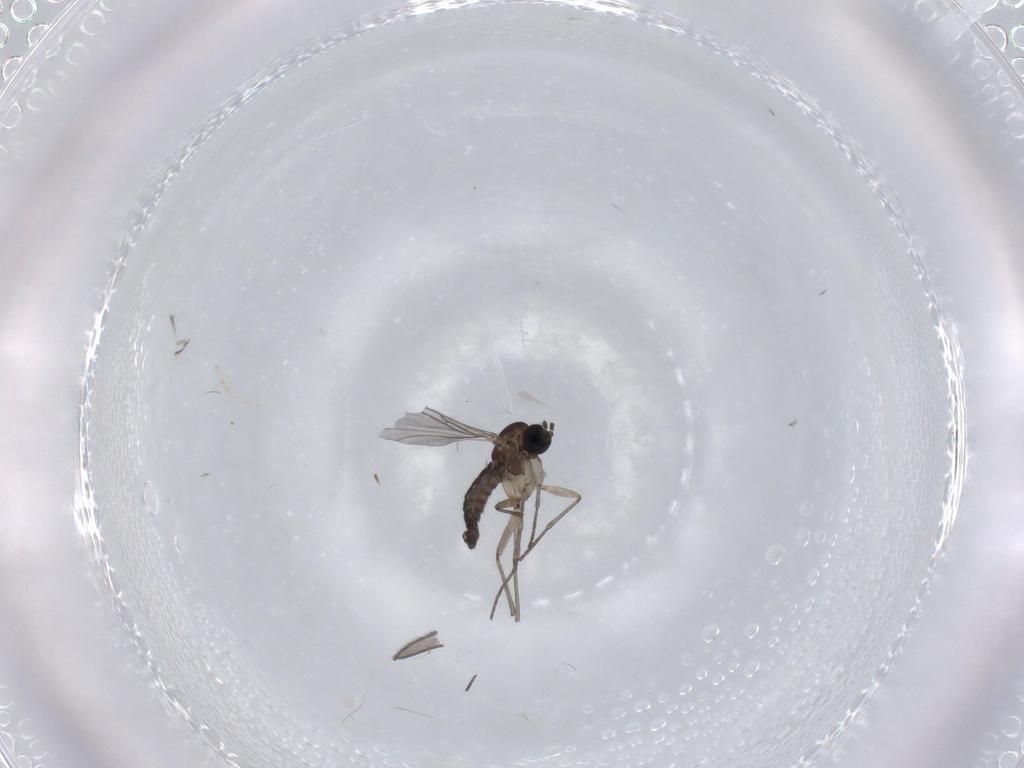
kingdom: Animalia
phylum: Arthropoda
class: Insecta
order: Diptera
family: Sciaridae
